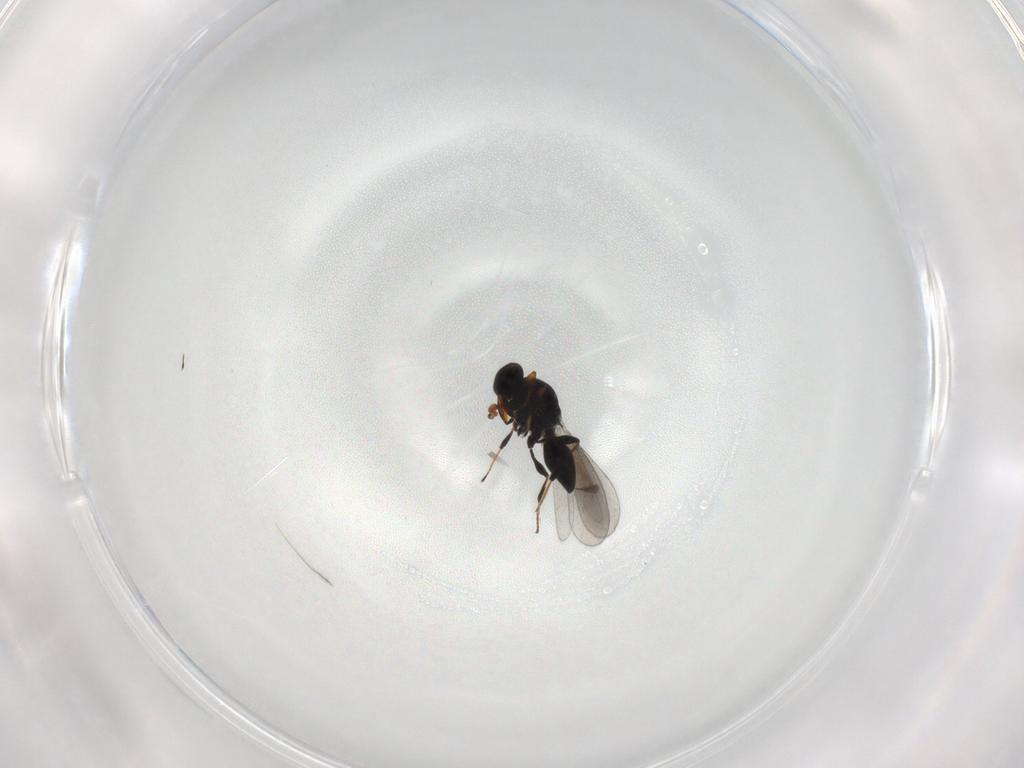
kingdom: Animalia
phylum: Arthropoda
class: Insecta
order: Hymenoptera
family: Platygastridae
